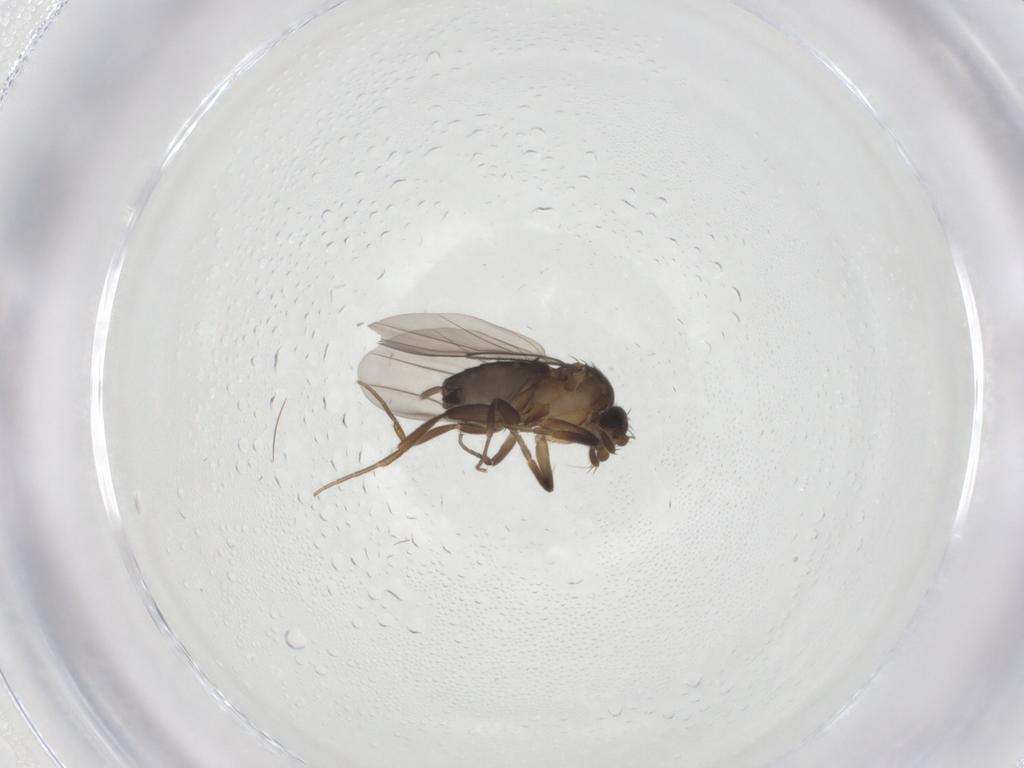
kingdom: Animalia
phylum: Arthropoda
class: Insecta
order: Diptera
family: Phoridae
